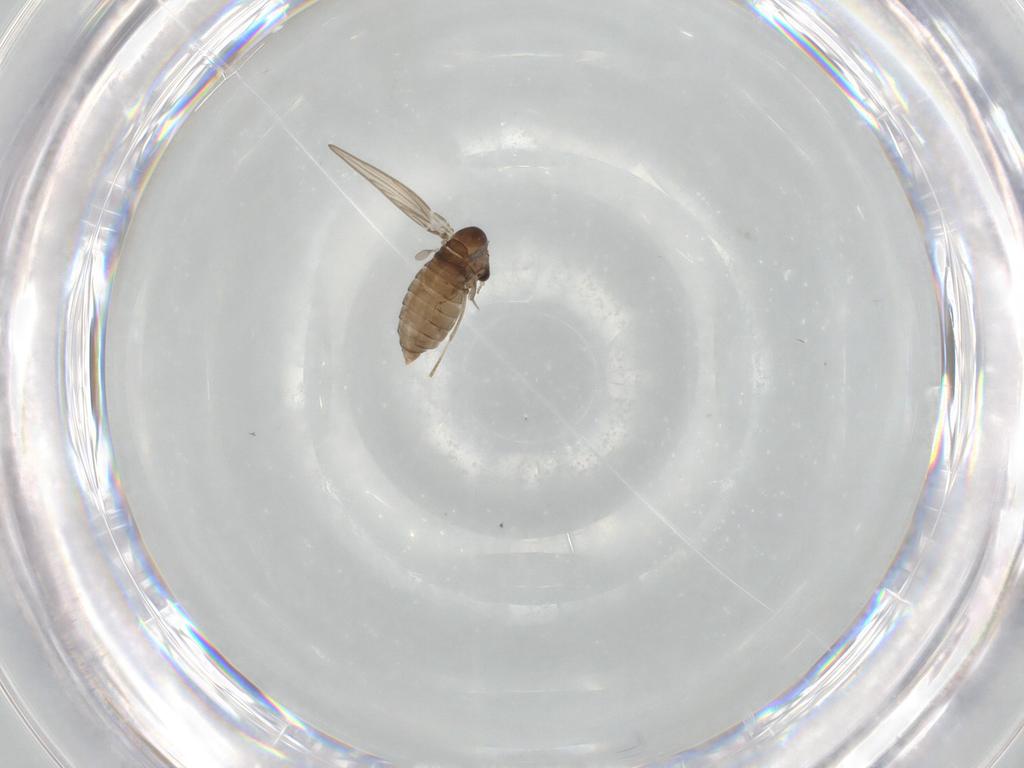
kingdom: Animalia
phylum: Arthropoda
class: Insecta
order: Diptera
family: Psychodidae
